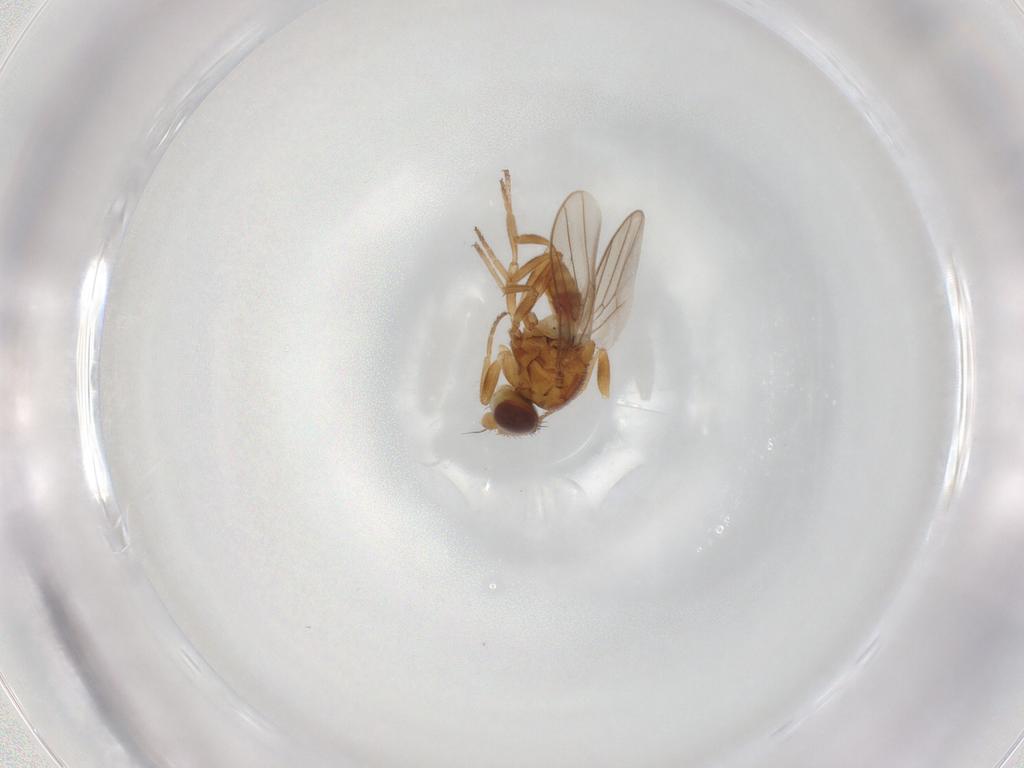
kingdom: Animalia
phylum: Arthropoda
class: Insecta
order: Diptera
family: Chloropidae
